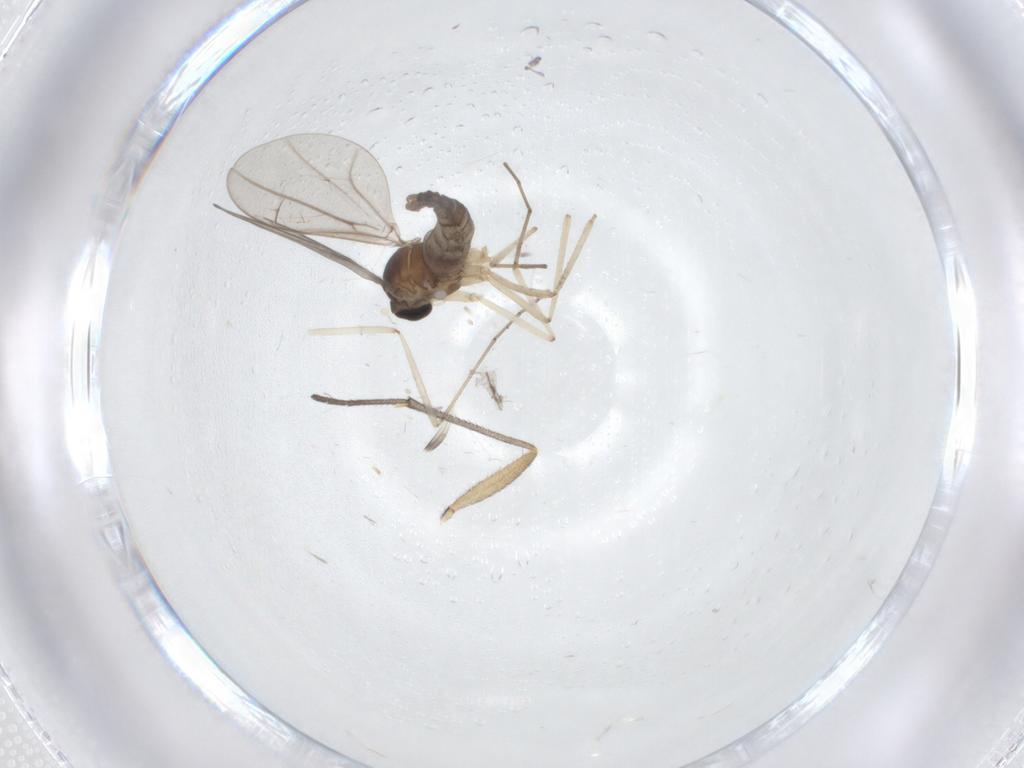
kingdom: Animalia
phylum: Arthropoda
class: Insecta
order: Diptera
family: Sciaridae
